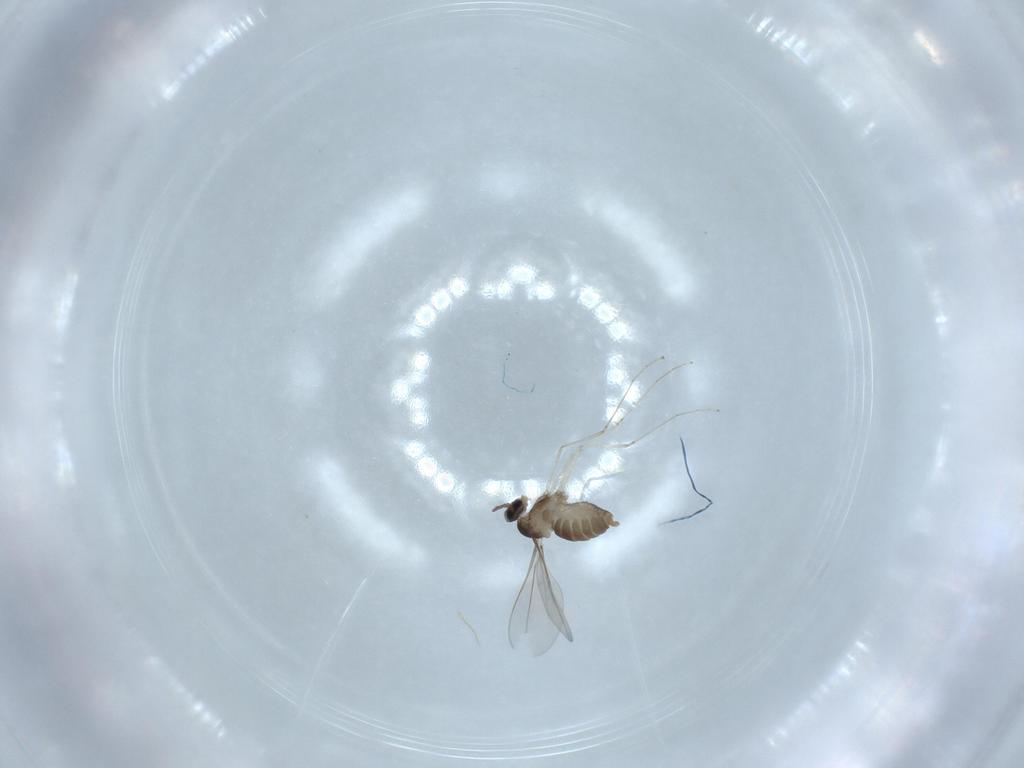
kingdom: Animalia
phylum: Arthropoda
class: Insecta
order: Diptera
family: Cecidomyiidae
